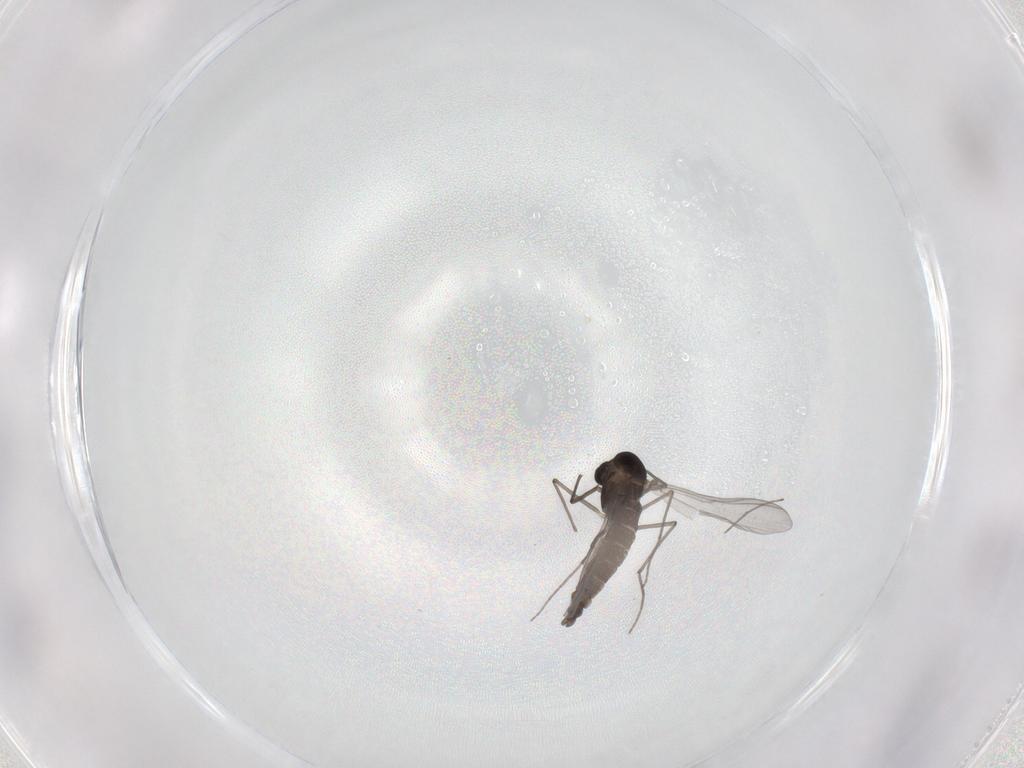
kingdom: Animalia
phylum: Arthropoda
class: Insecta
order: Diptera
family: Chironomidae
